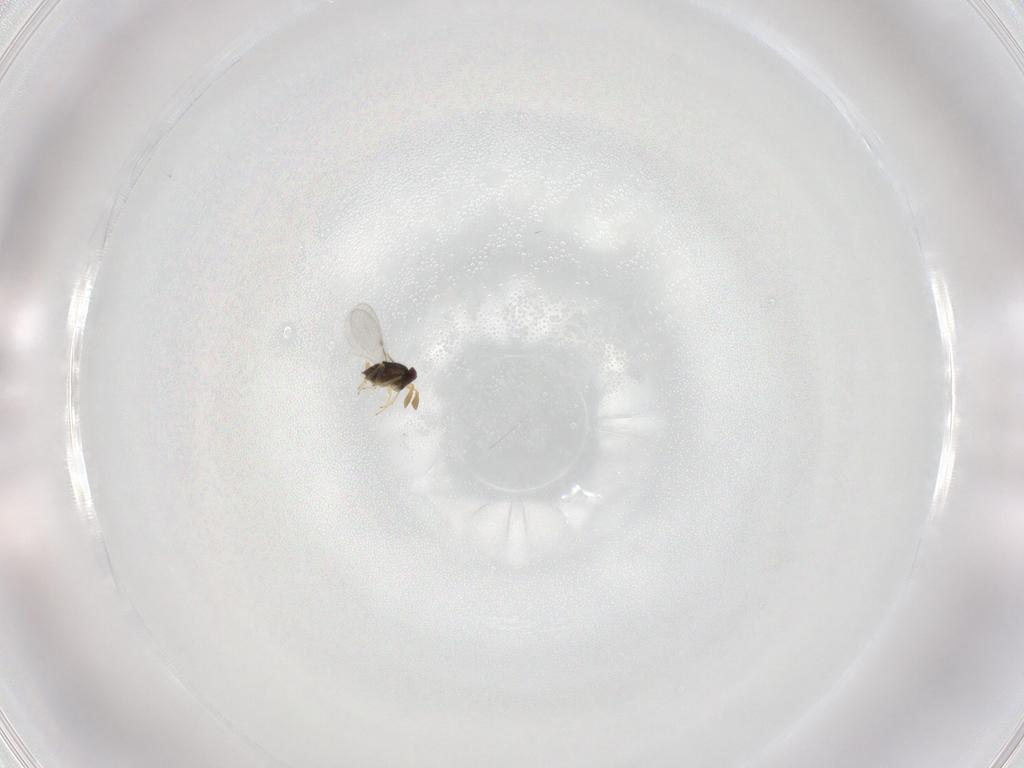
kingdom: Animalia
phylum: Arthropoda
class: Insecta
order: Hymenoptera
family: Encyrtidae
